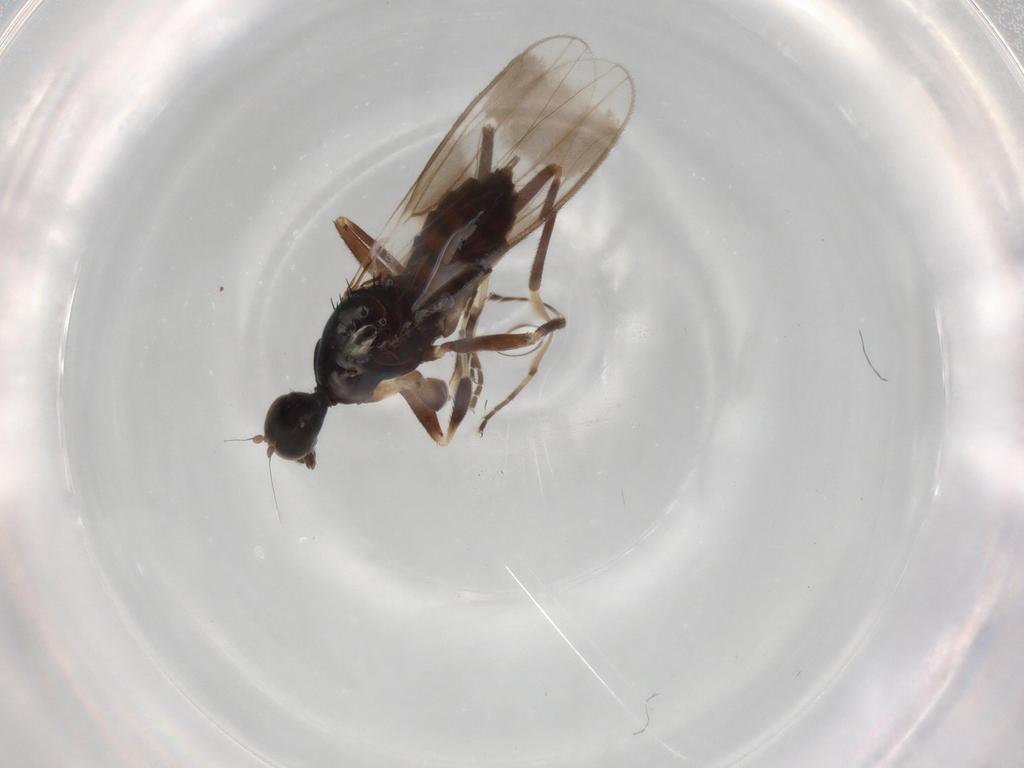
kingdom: Animalia
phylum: Arthropoda
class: Insecta
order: Diptera
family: Hybotidae
